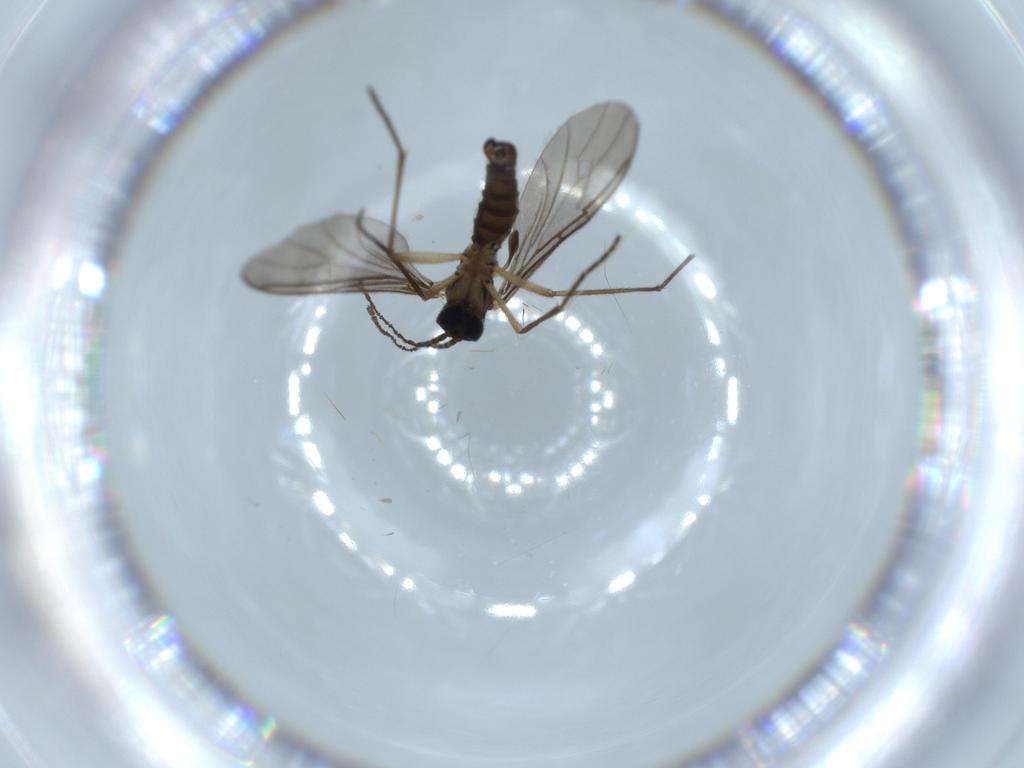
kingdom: Animalia
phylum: Arthropoda
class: Insecta
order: Diptera
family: Sciaridae
